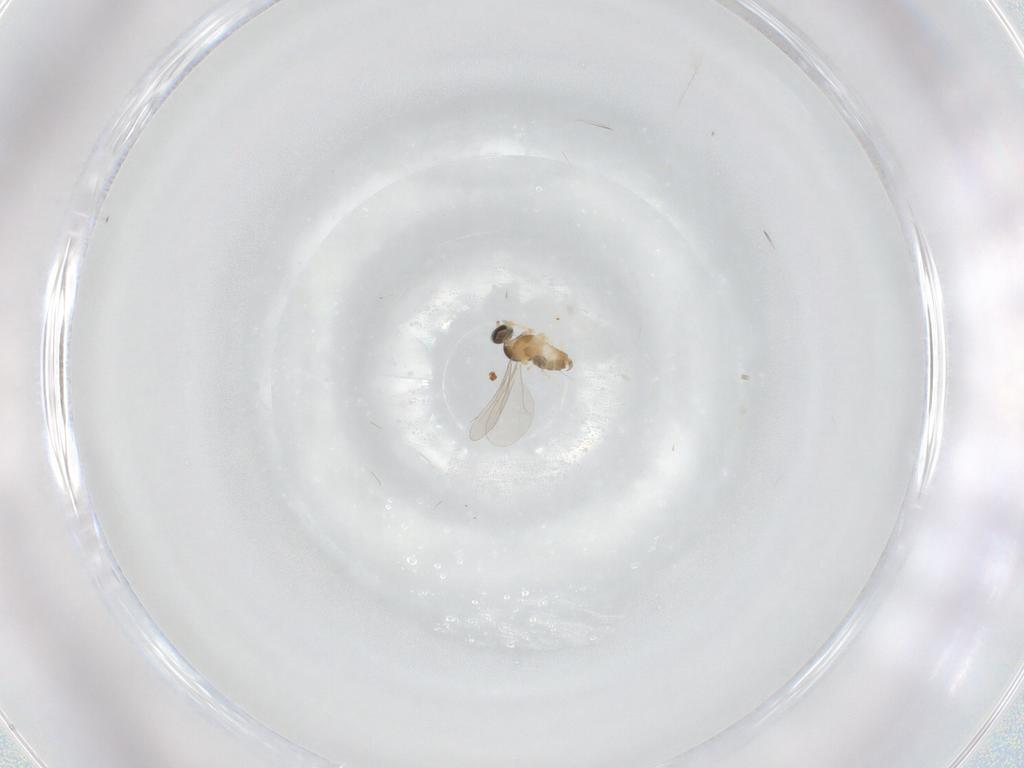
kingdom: Animalia
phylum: Arthropoda
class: Insecta
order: Diptera
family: Cecidomyiidae
